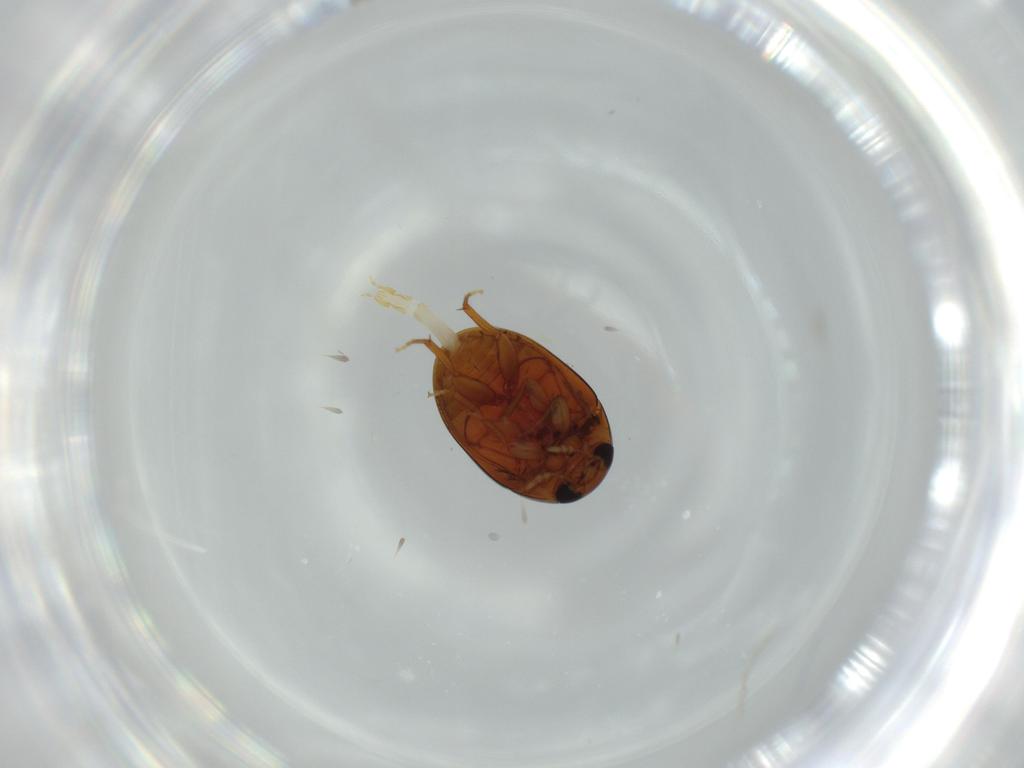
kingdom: Animalia
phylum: Arthropoda
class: Insecta
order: Coleoptera
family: Phalacridae
